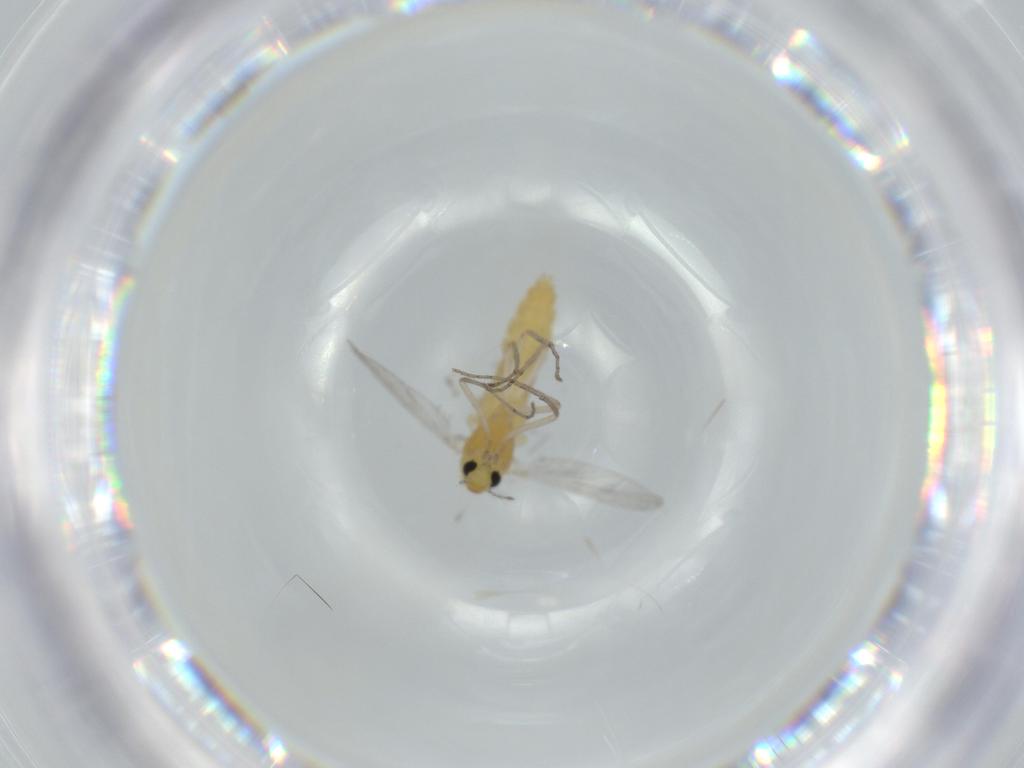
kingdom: Animalia
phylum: Arthropoda
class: Insecta
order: Diptera
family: Chironomidae
